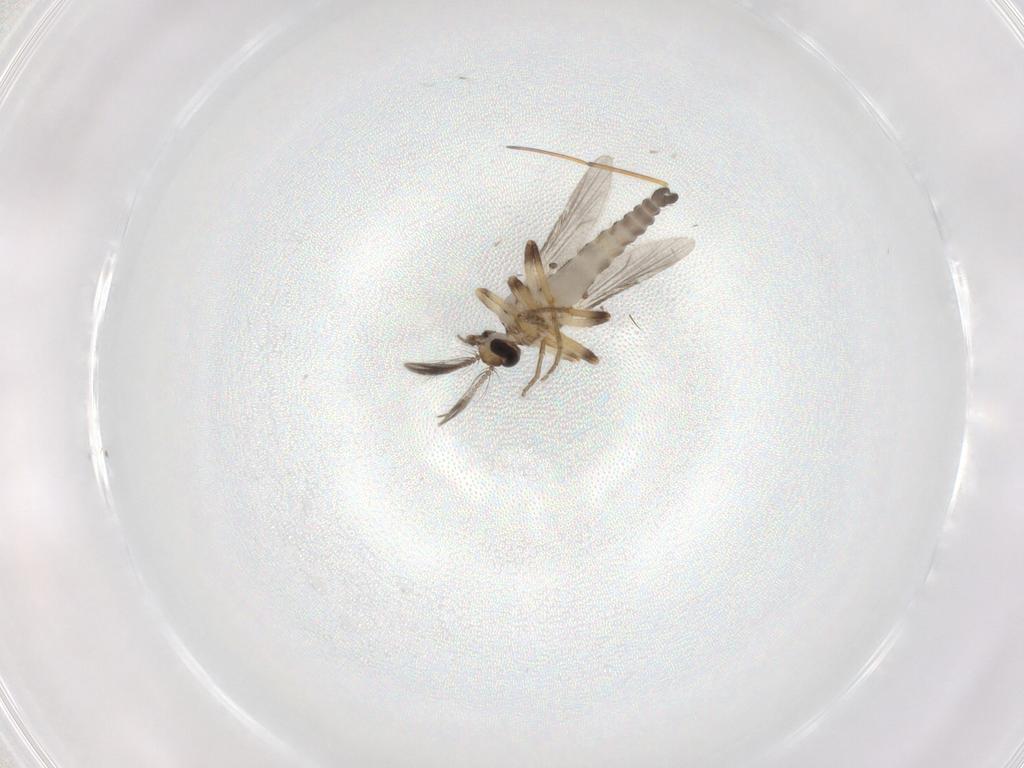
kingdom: Animalia
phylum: Arthropoda
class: Insecta
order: Diptera
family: Ceratopogonidae
